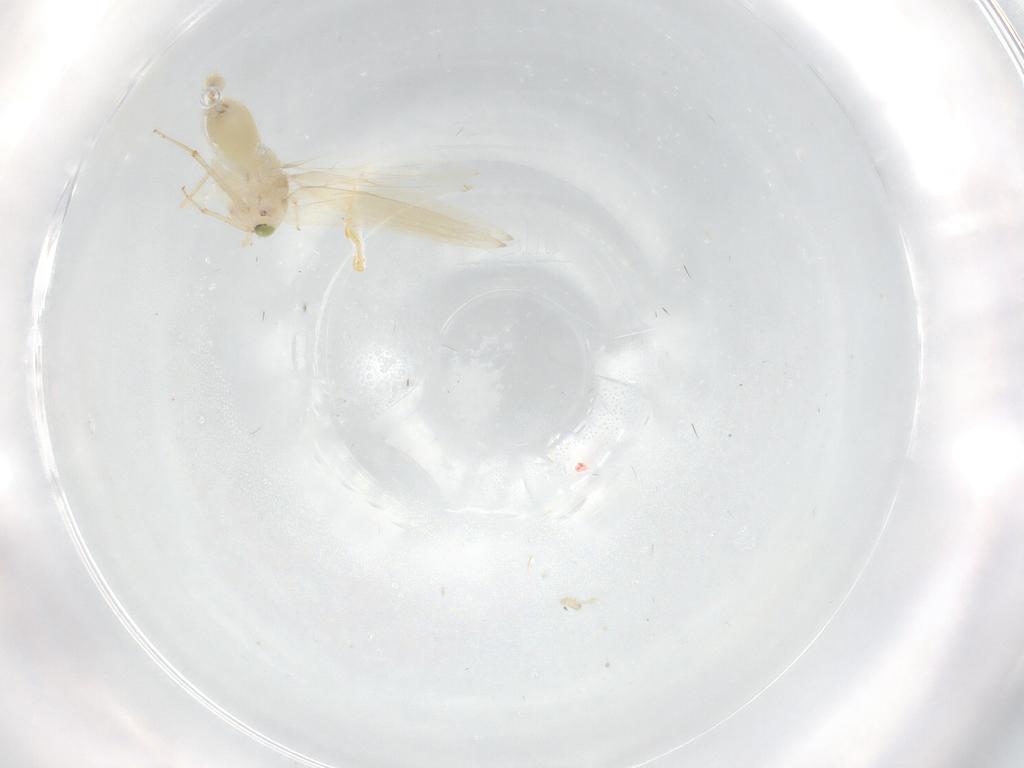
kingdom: Animalia
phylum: Arthropoda
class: Insecta
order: Psocodea
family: Lepidopsocidae
